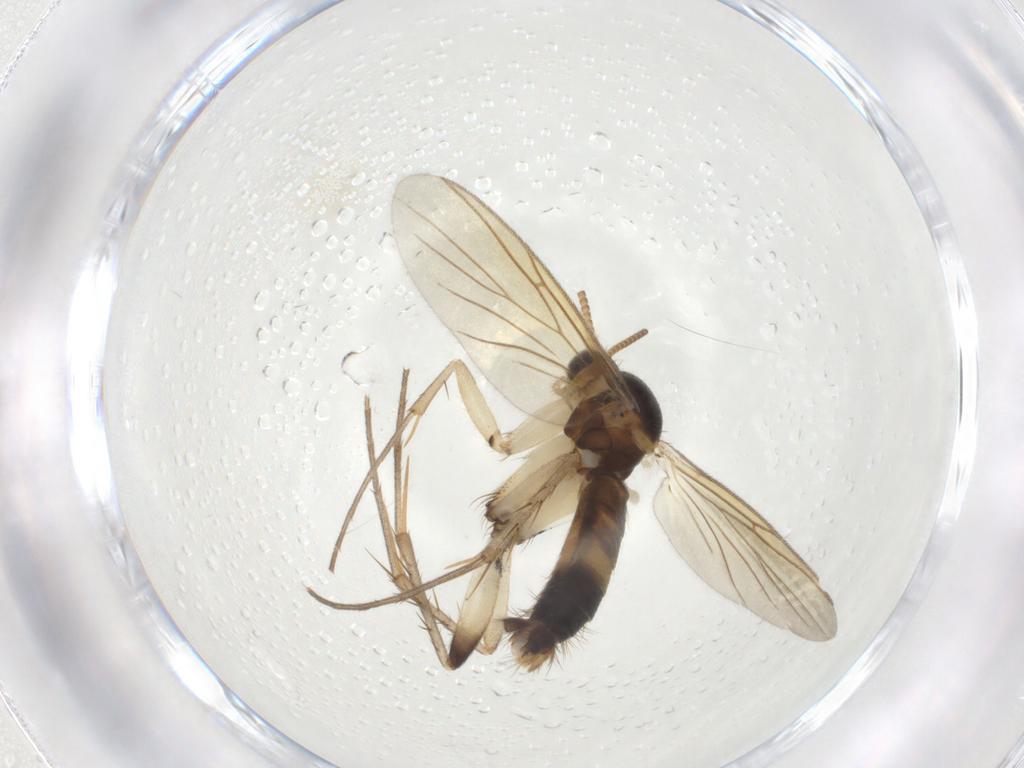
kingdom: Animalia
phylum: Arthropoda
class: Insecta
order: Diptera
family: Mycetophilidae
